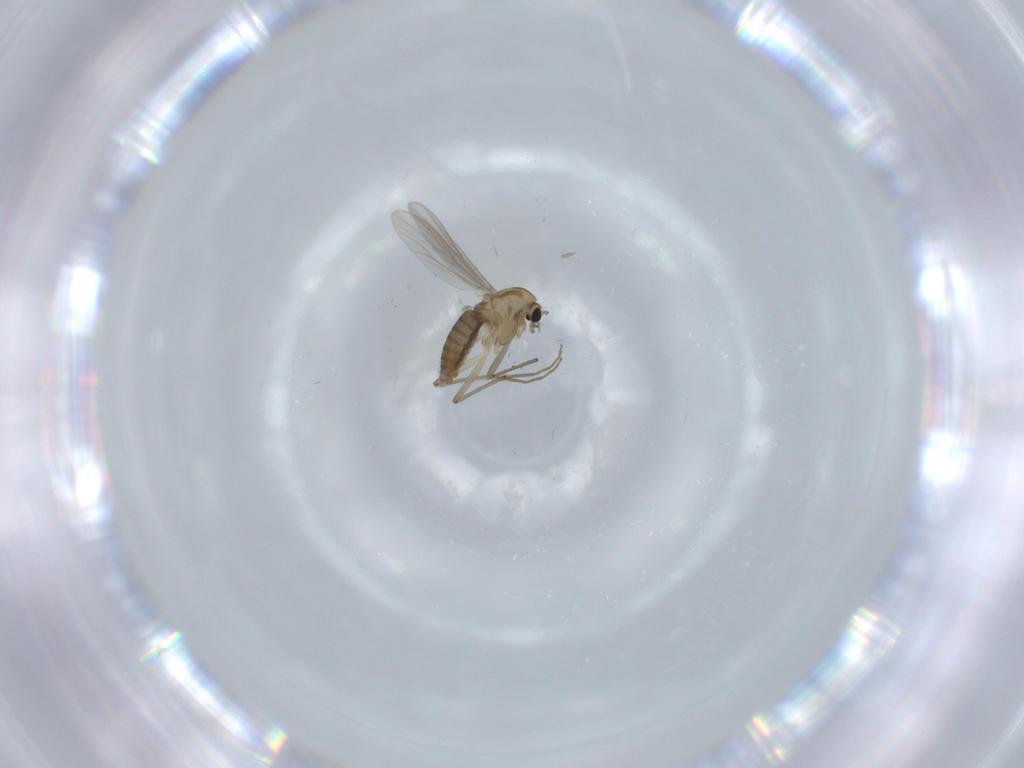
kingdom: Animalia
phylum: Arthropoda
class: Insecta
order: Diptera
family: Chironomidae
